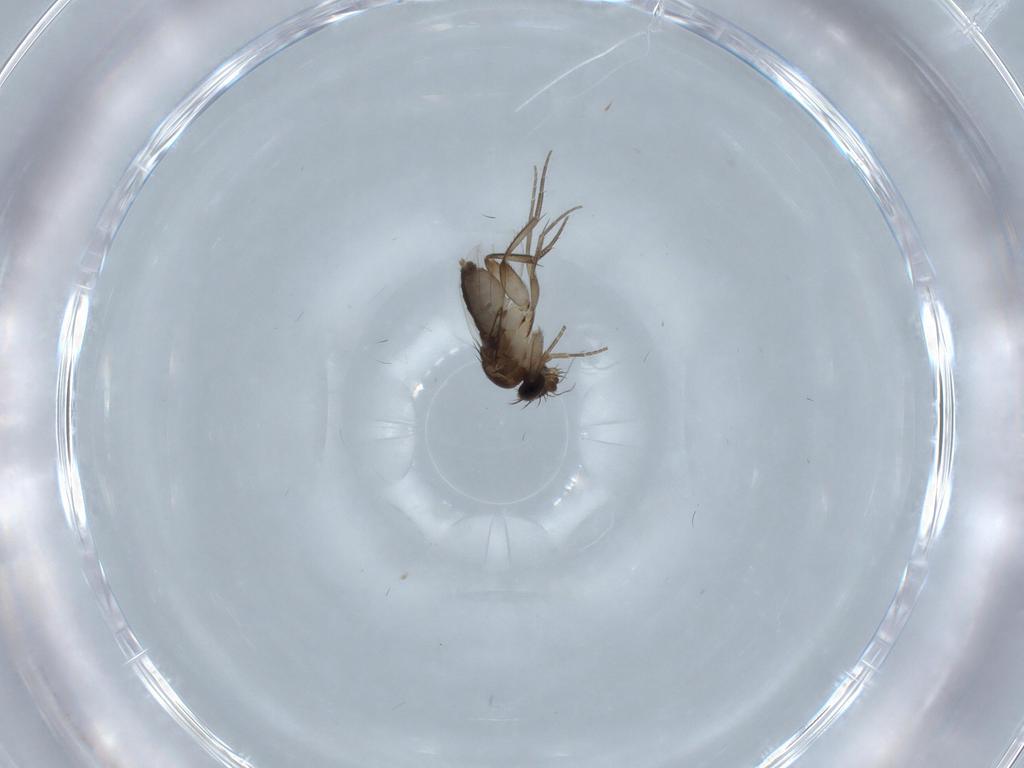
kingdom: Animalia
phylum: Arthropoda
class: Insecta
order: Diptera
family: Phoridae
